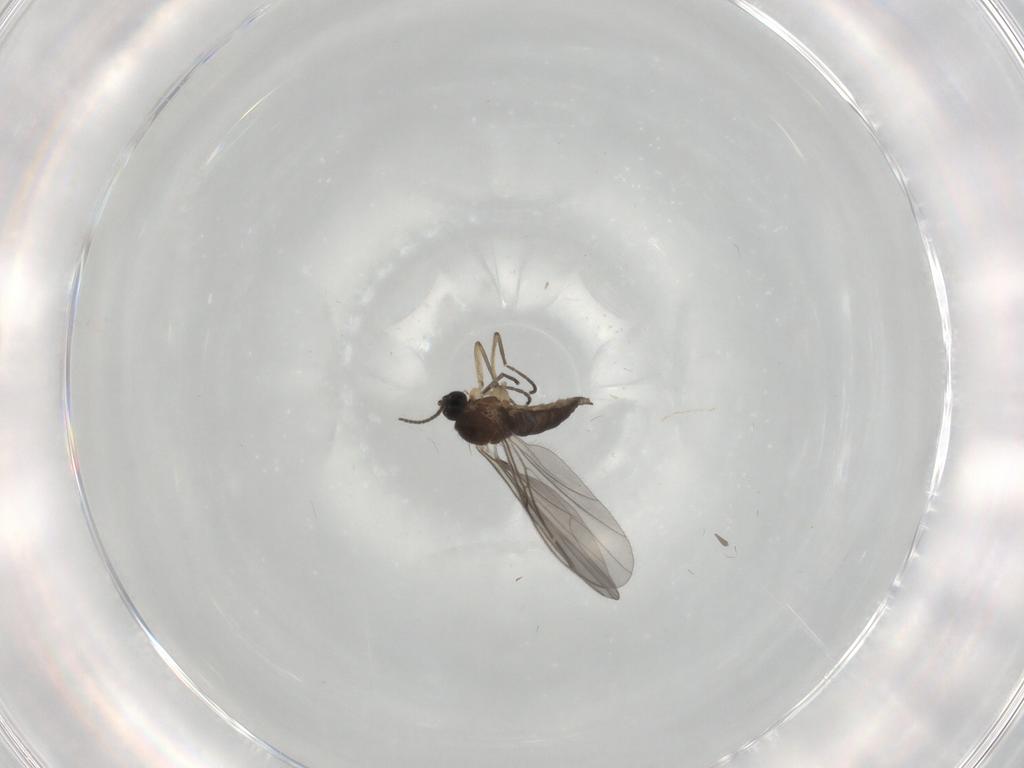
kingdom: Animalia
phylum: Arthropoda
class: Insecta
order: Diptera
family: Sciaridae
